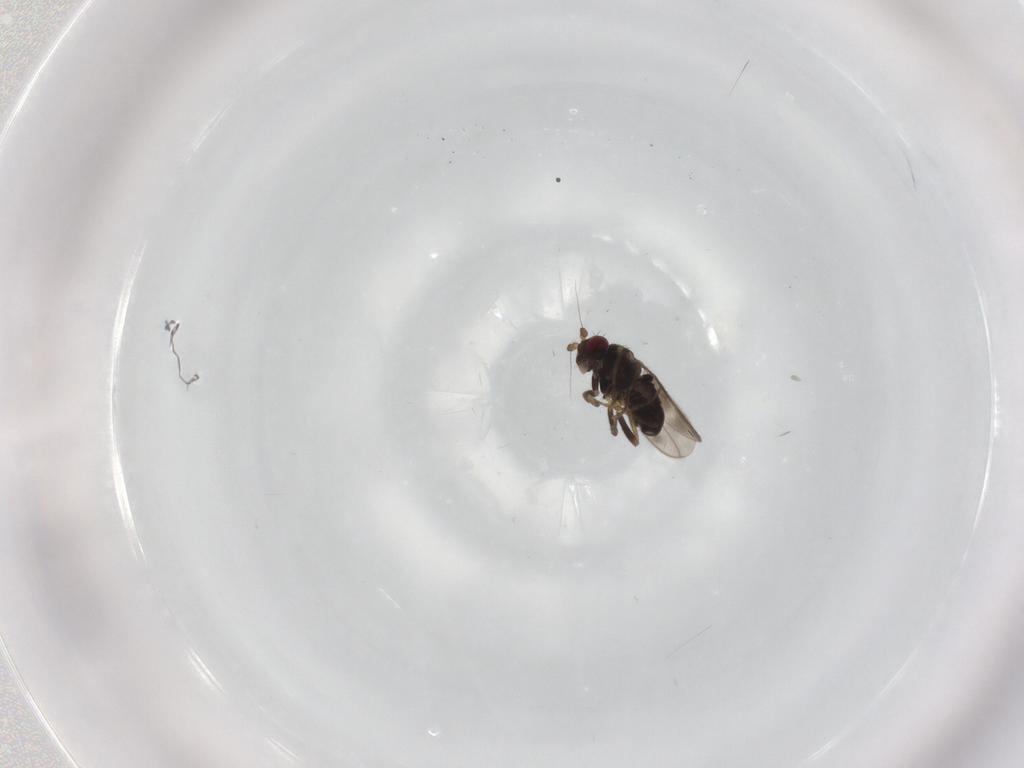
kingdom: Animalia
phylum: Arthropoda
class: Insecta
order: Diptera
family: Sphaeroceridae
